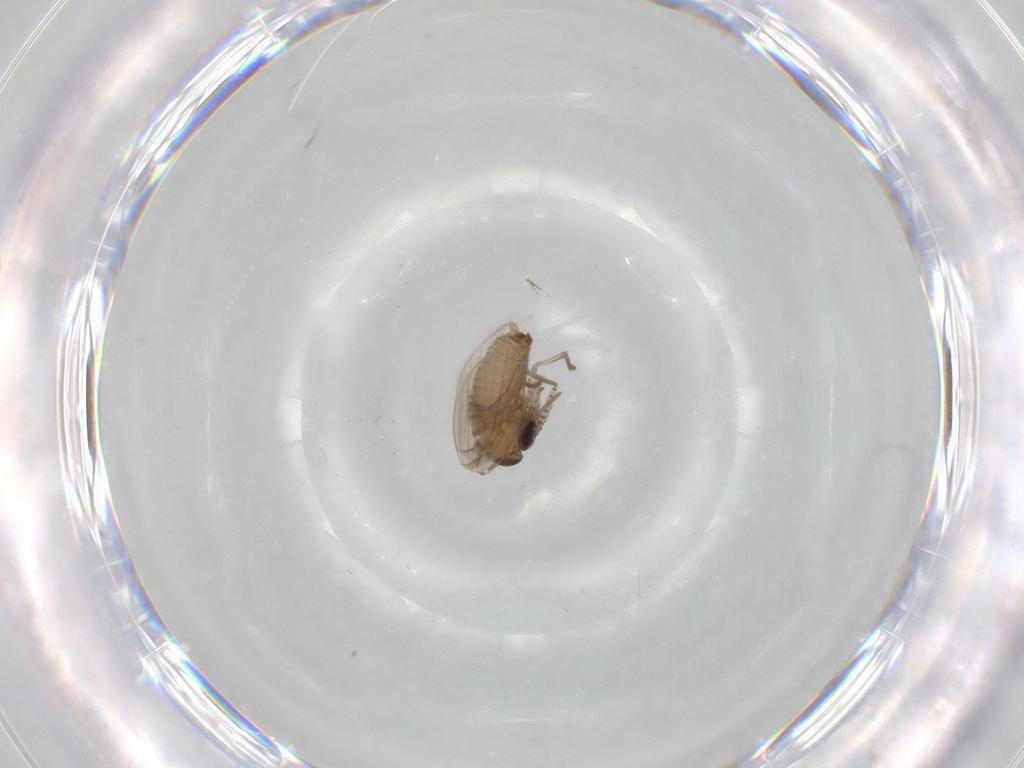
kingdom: Animalia
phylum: Arthropoda
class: Insecta
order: Diptera
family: Psychodidae
